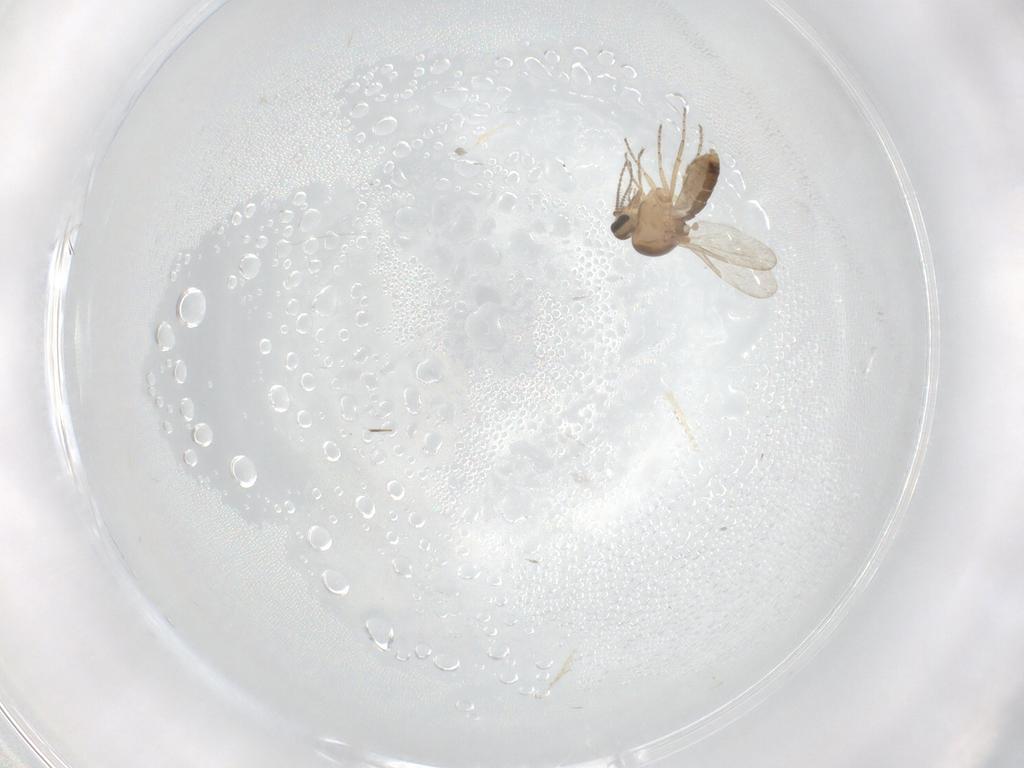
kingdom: Animalia
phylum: Arthropoda
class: Insecta
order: Diptera
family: Ceratopogonidae
